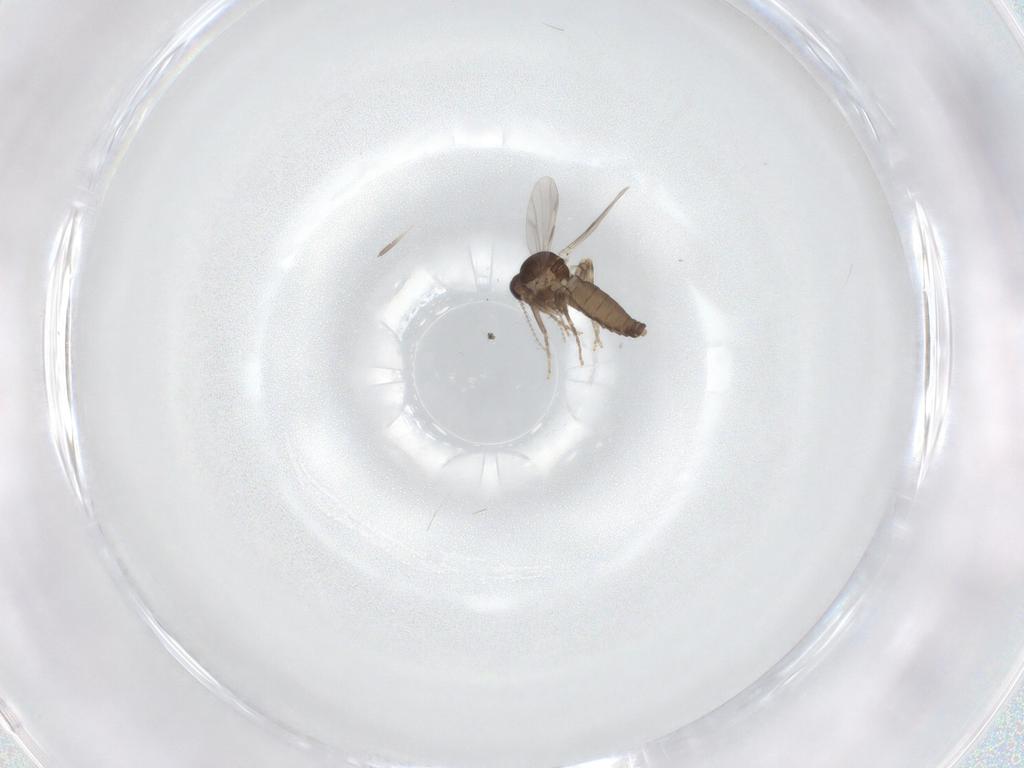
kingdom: Animalia
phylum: Arthropoda
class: Insecta
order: Diptera
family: Ceratopogonidae
